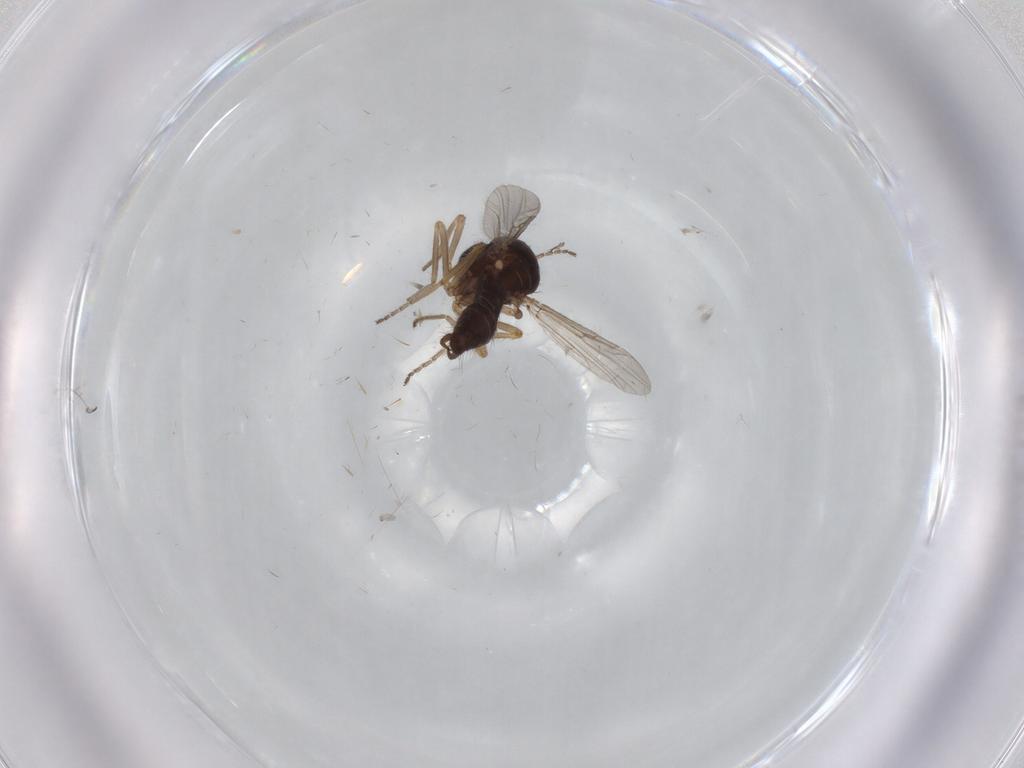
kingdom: Animalia
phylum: Arthropoda
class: Insecta
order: Diptera
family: Ceratopogonidae
